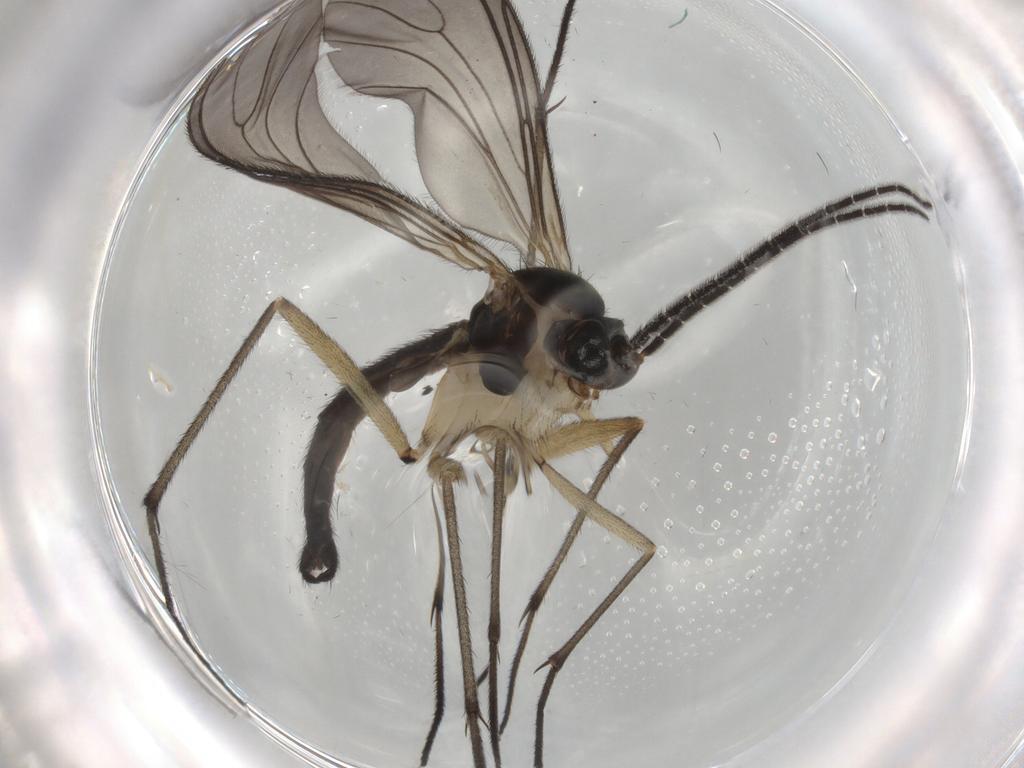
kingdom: Animalia
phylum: Arthropoda
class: Insecta
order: Diptera
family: Sciaridae
